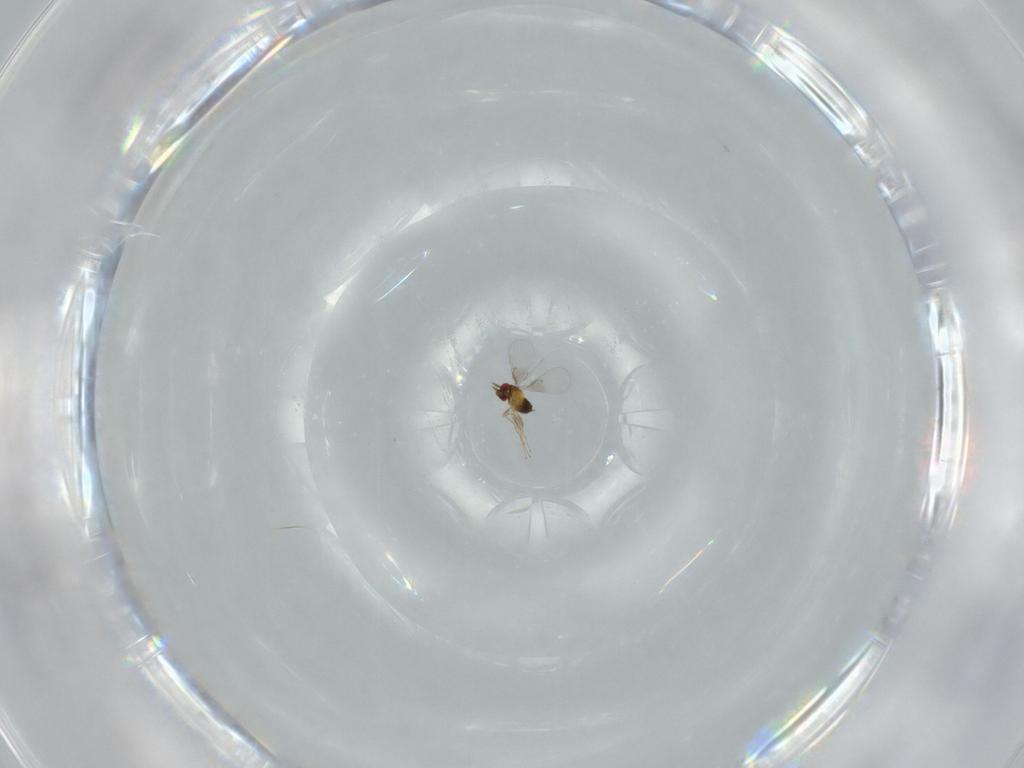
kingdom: Animalia
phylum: Arthropoda
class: Insecta
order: Hymenoptera
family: Trichogrammatidae
